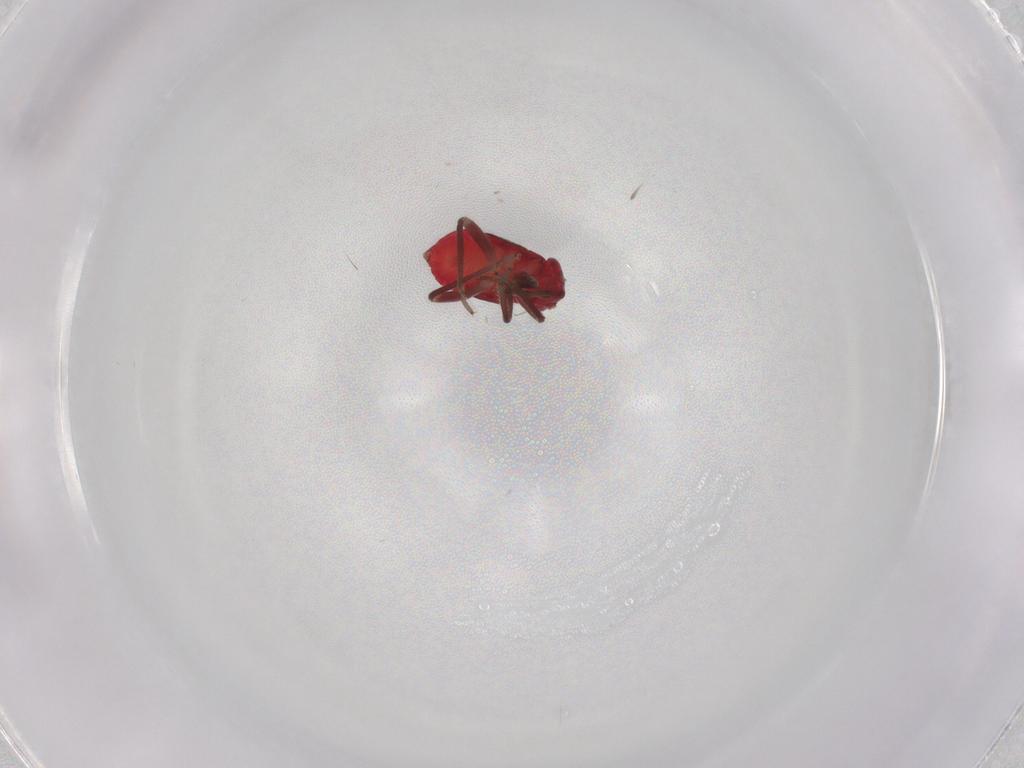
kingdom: Animalia
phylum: Arthropoda
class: Insecta
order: Hemiptera
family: Miridae
